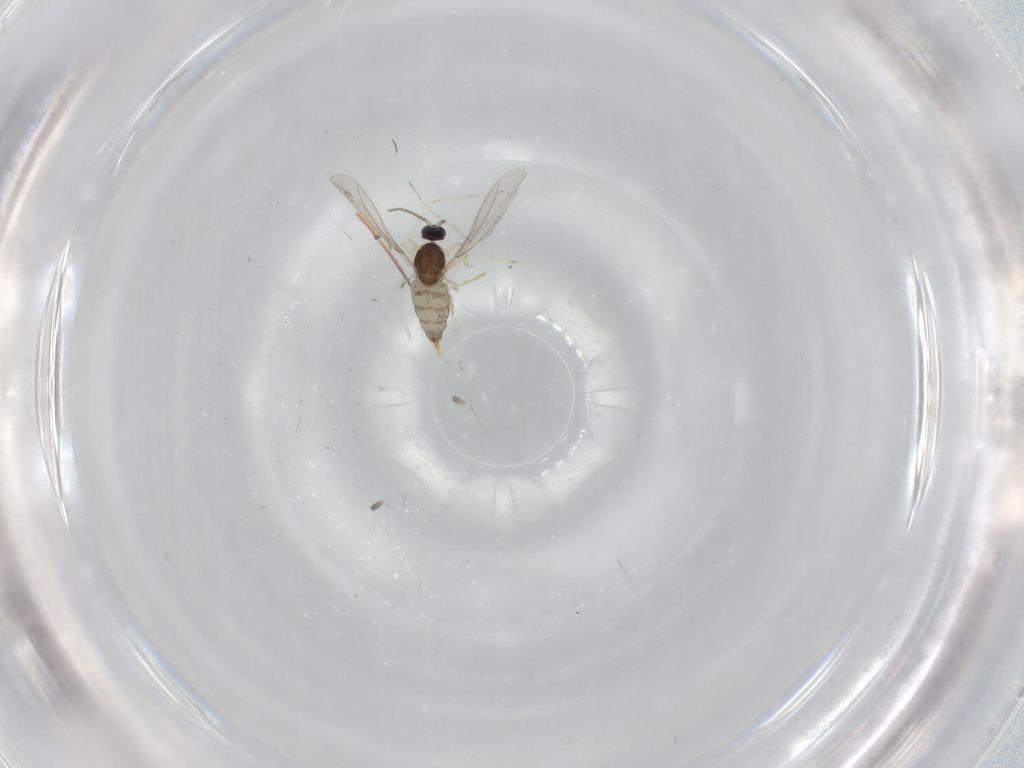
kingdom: Animalia
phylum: Arthropoda
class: Insecta
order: Diptera
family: Cecidomyiidae
